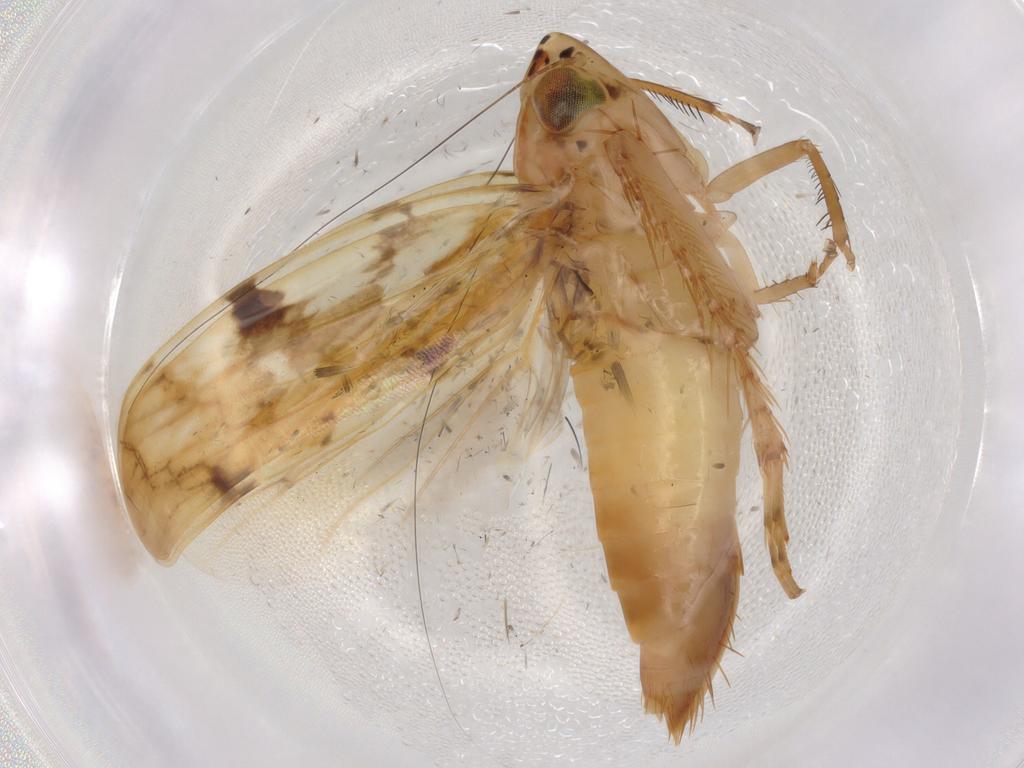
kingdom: Animalia
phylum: Arthropoda
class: Insecta
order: Hemiptera
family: Cicadellidae
